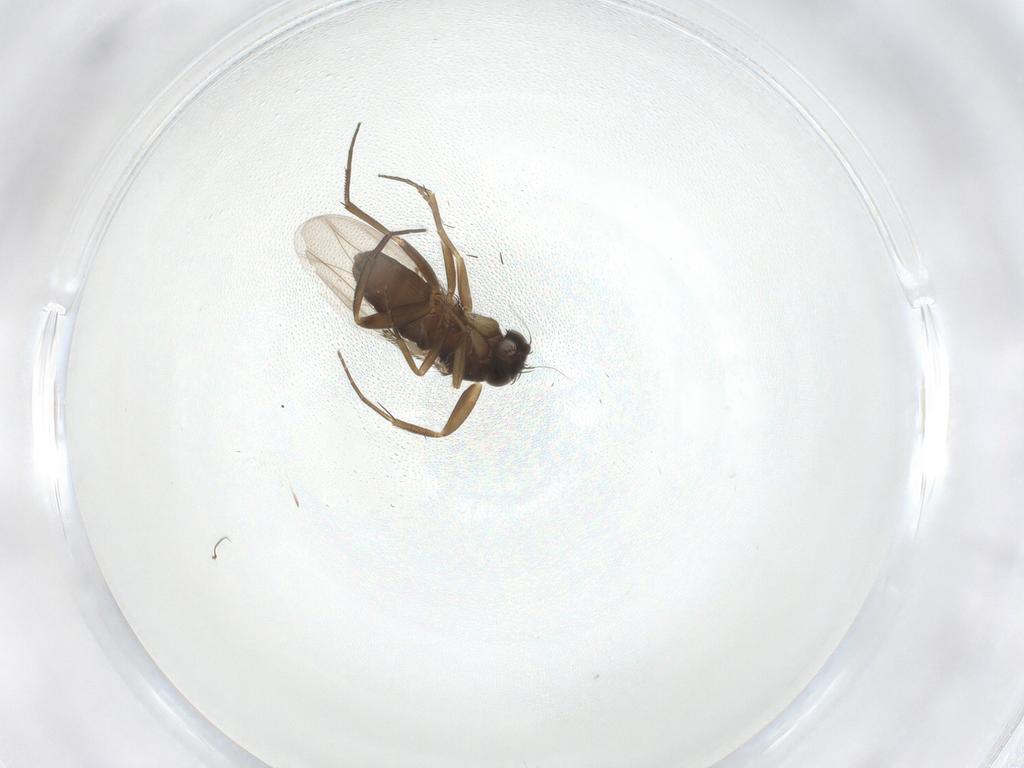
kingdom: Animalia
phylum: Arthropoda
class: Insecta
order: Diptera
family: Phoridae
